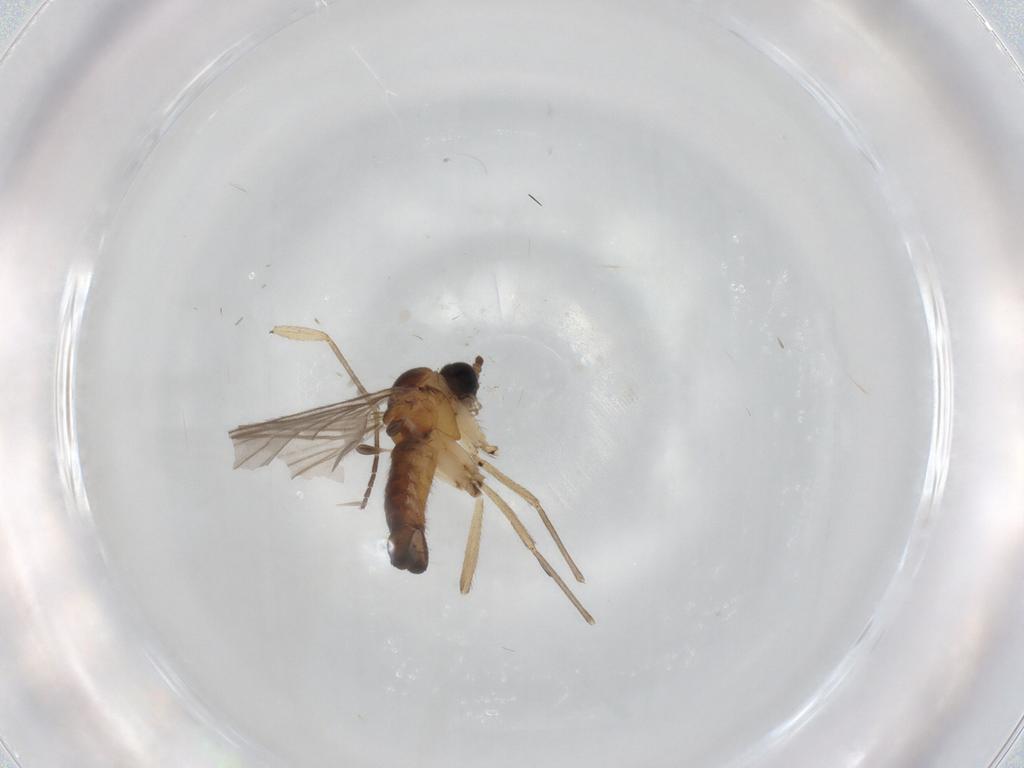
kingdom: Animalia
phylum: Arthropoda
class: Insecta
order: Diptera
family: Sciaridae
